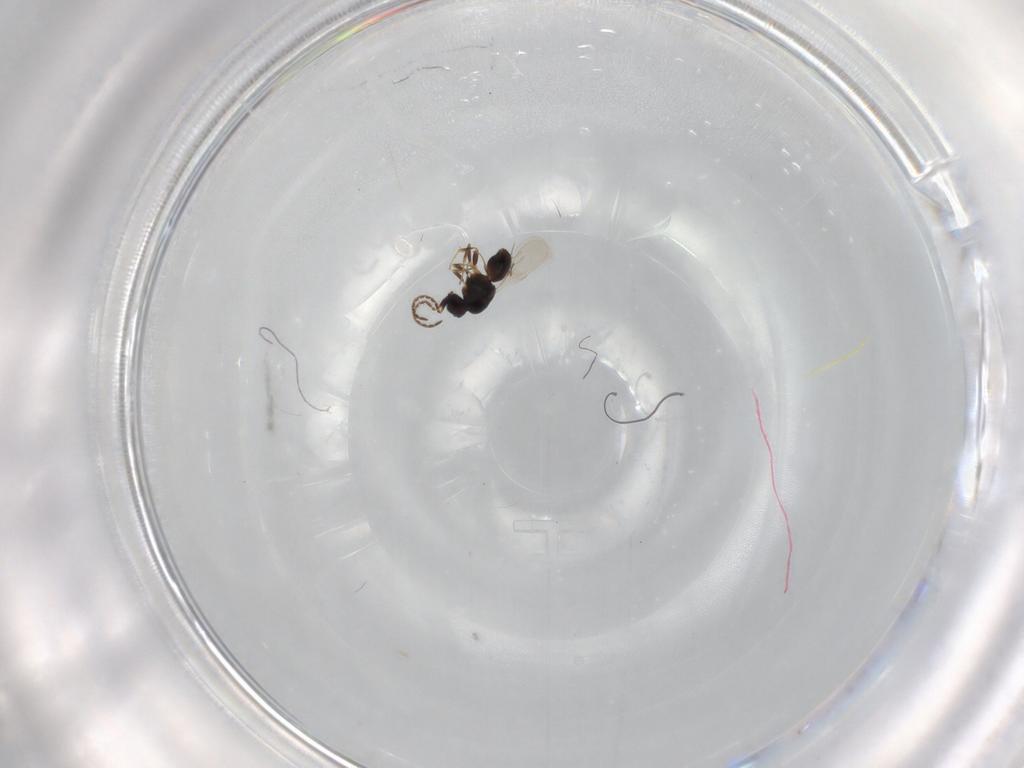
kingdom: Animalia
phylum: Arthropoda
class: Insecta
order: Hymenoptera
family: Mymaridae
